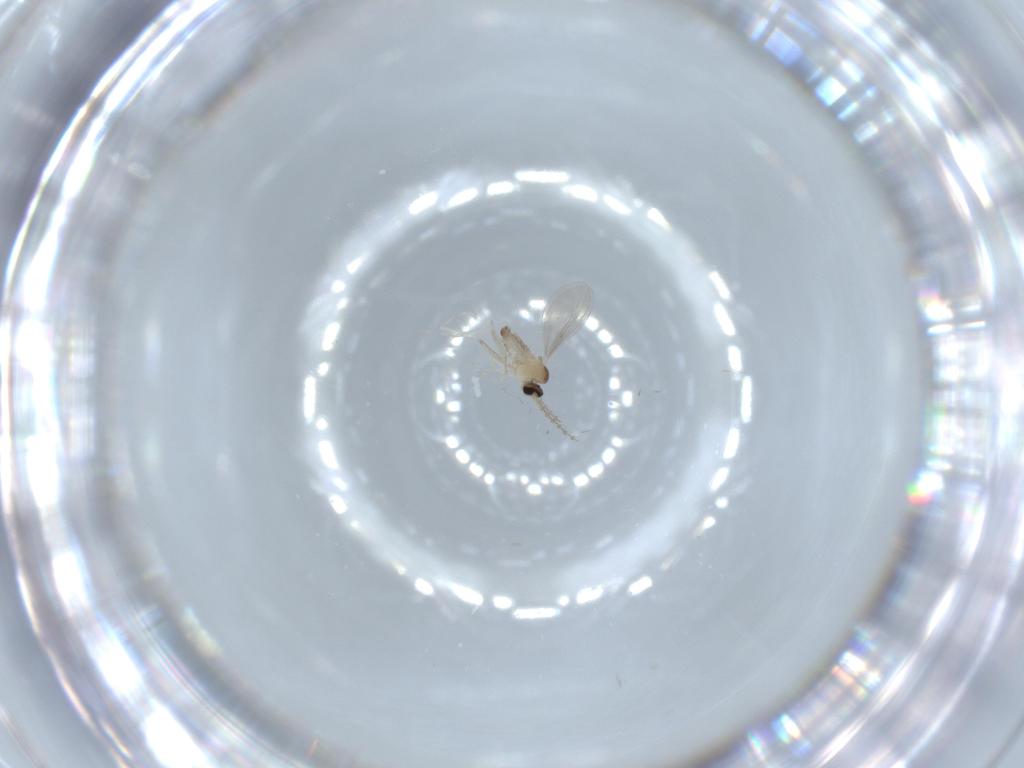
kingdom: Animalia
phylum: Arthropoda
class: Insecta
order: Diptera
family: Cecidomyiidae
